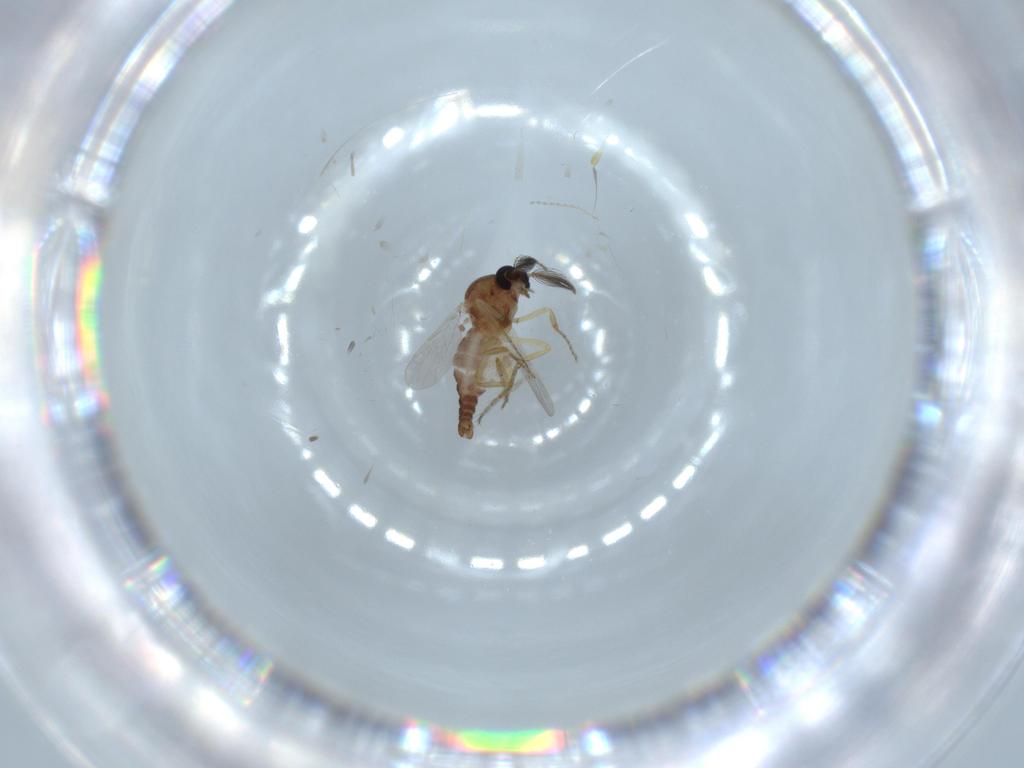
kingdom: Animalia
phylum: Arthropoda
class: Insecta
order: Diptera
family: Ceratopogonidae
